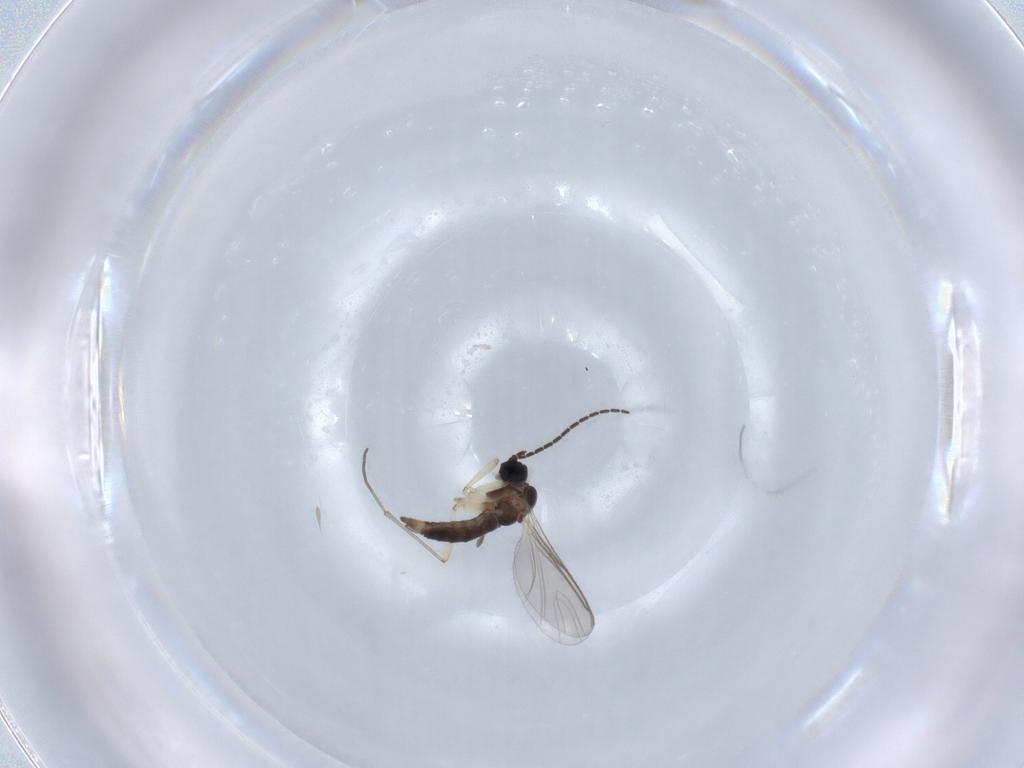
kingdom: Animalia
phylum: Arthropoda
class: Insecta
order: Diptera
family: Sciaridae
